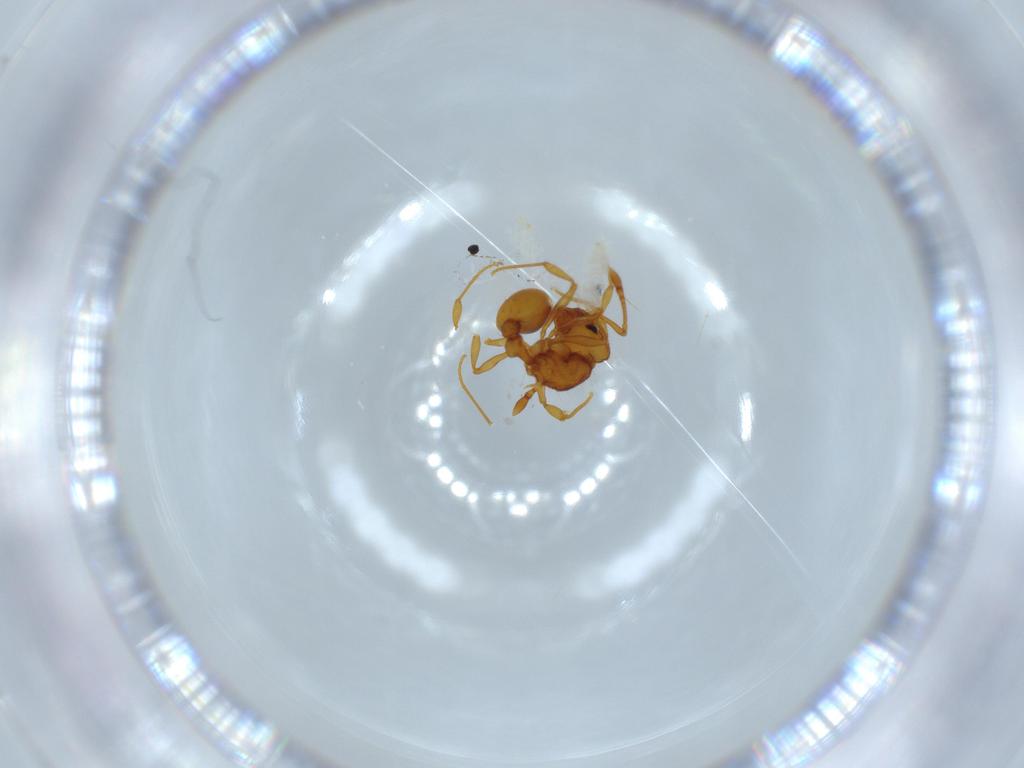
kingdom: Animalia
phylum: Arthropoda
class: Insecta
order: Hymenoptera
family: Formicidae
